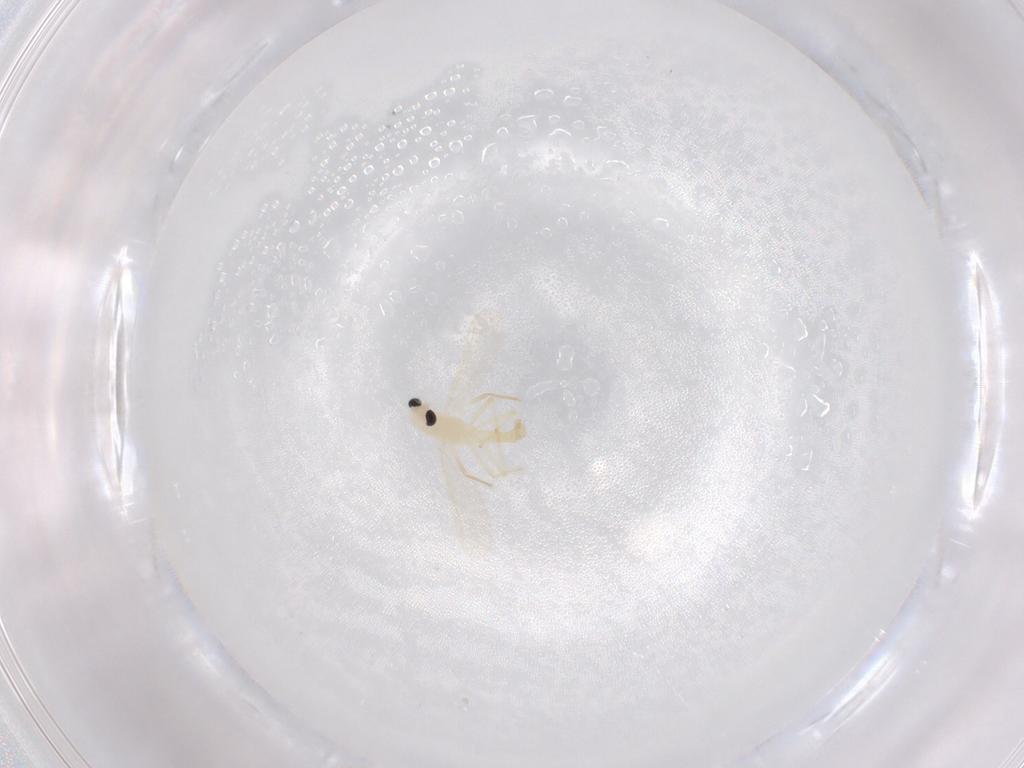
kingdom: Animalia
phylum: Arthropoda
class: Insecta
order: Diptera
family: Chironomidae
